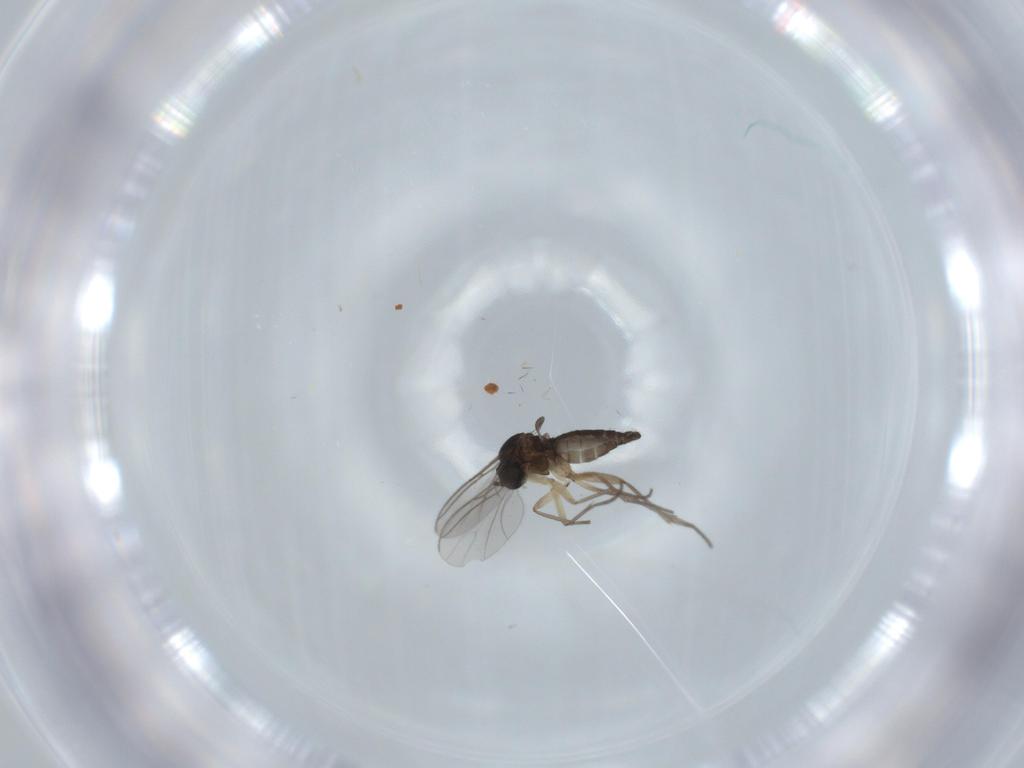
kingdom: Animalia
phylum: Arthropoda
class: Insecta
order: Diptera
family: Sciaridae
